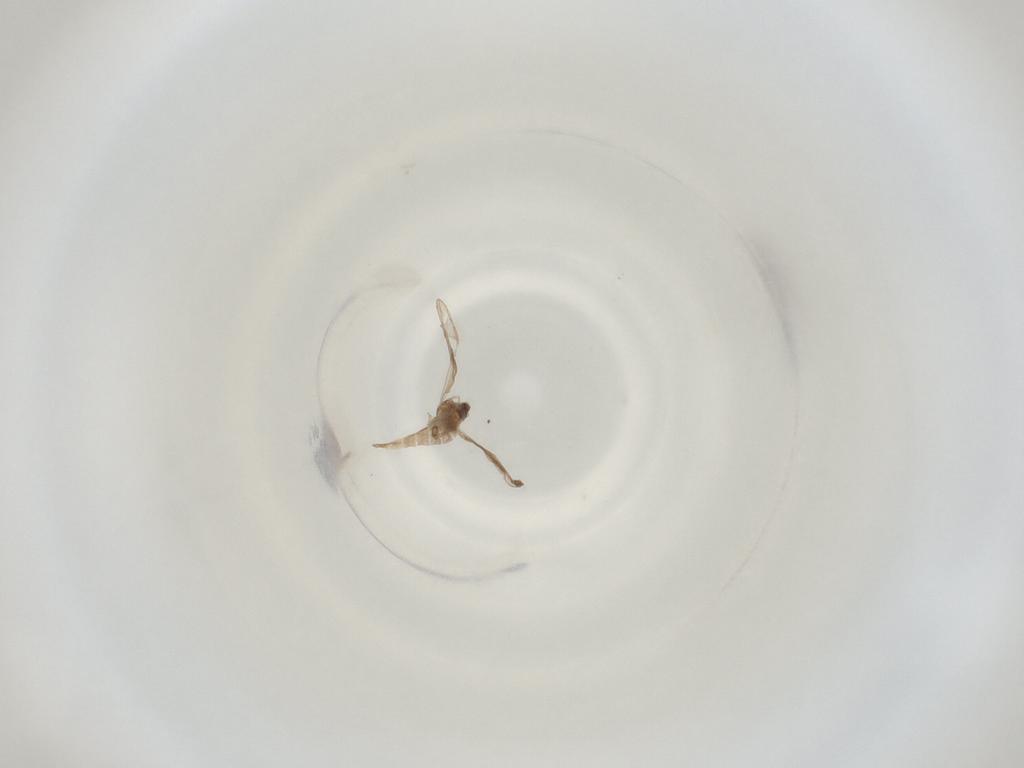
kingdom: Animalia
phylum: Arthropoda
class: Insecta
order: Diptera
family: Cecidomyiidae
